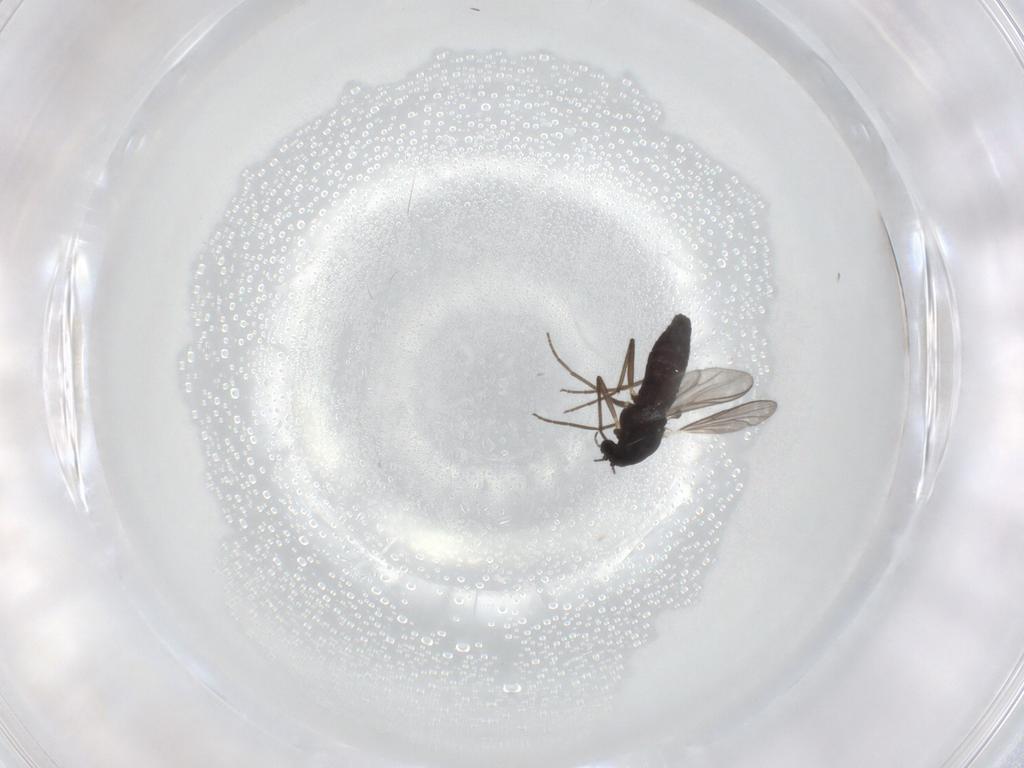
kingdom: Animalia
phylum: Arthropoda
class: Insecta
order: Diptera
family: Chironomidae
